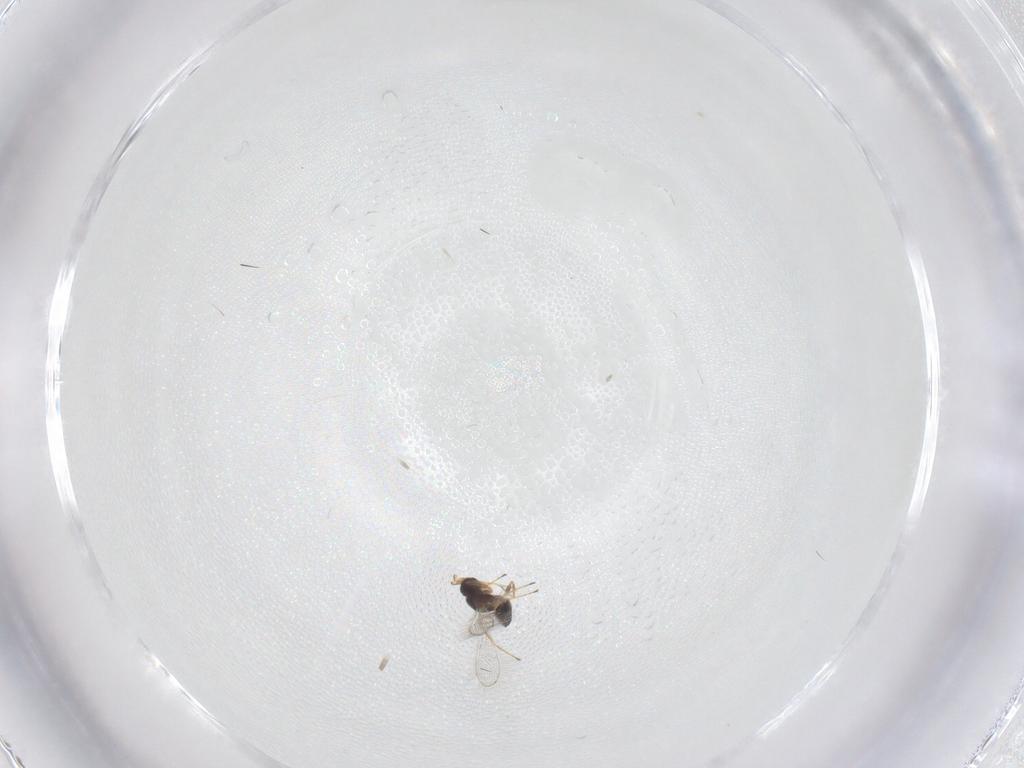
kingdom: Animalia
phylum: Arthropoda
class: Insecta
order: Hymenoptera
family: Mymaridae
